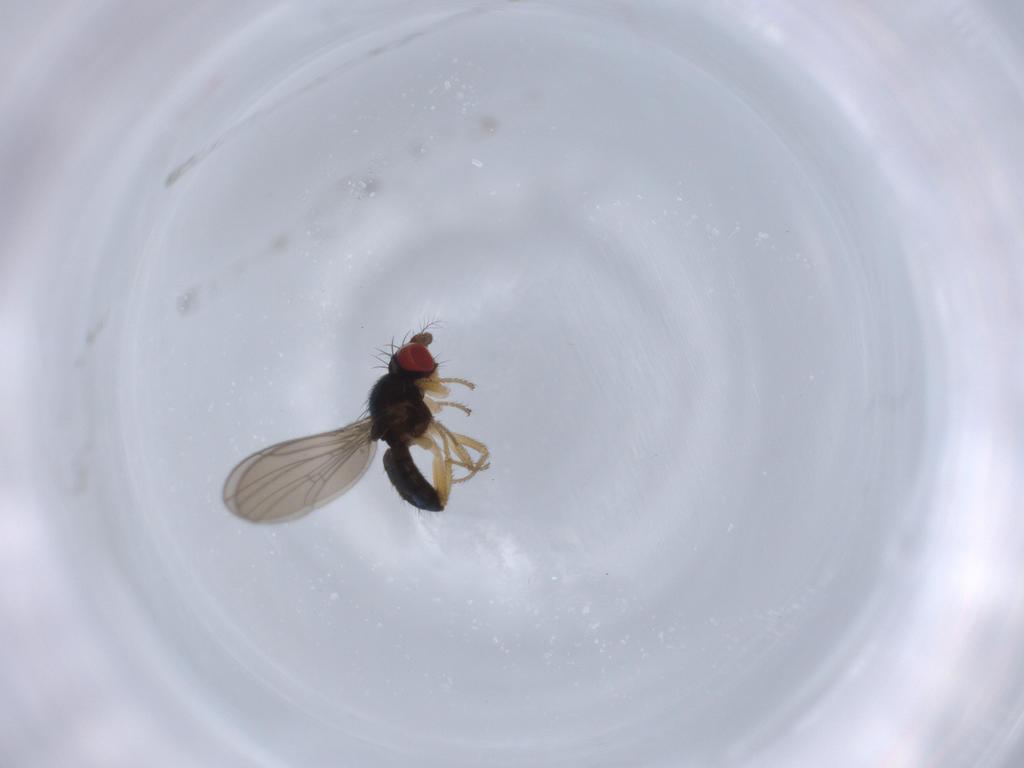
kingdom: Animalia
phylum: Arthropoda
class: Insecta
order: Diptera
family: Drosophilidae
